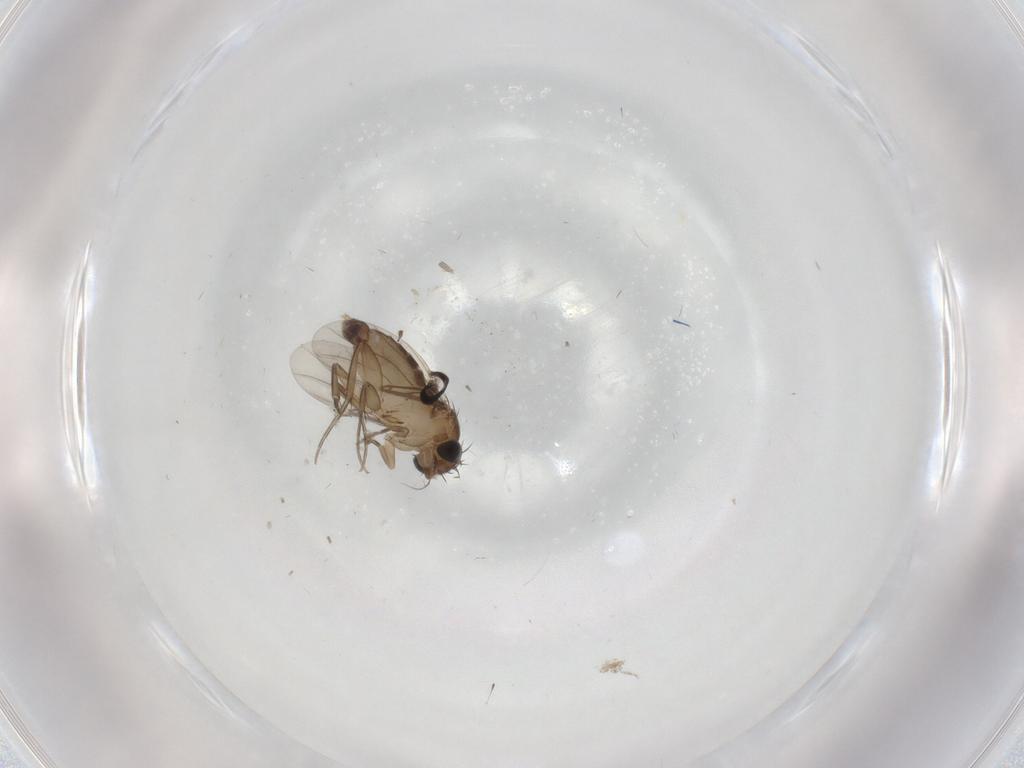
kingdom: Animalia
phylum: Arthropoda
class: Insecta
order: Diptera
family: Phoridae
